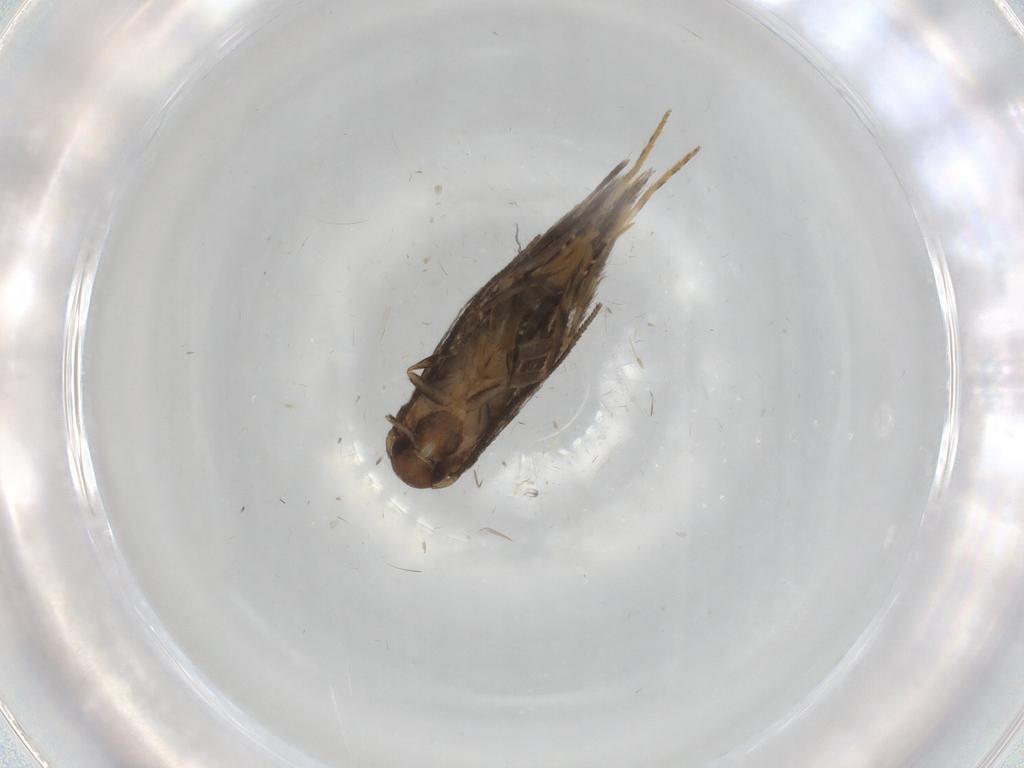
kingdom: Animalia
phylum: Arthropoda
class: Insecta
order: Lepidoptera
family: Elachistidae
